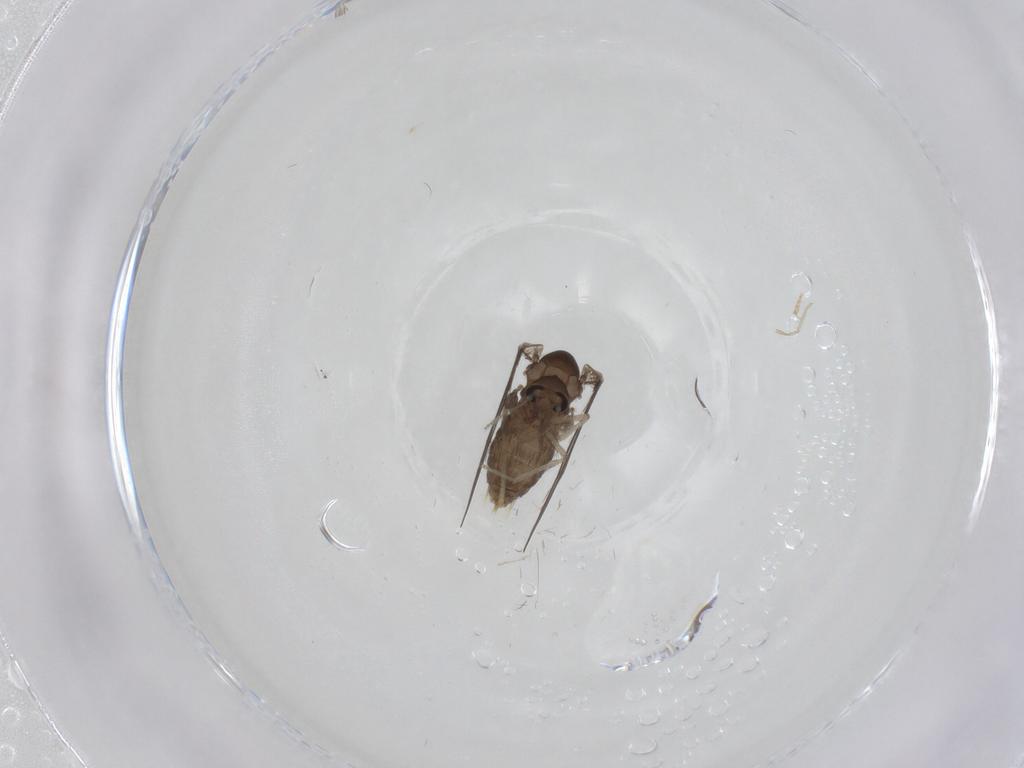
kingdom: Animalia
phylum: Arthropoda
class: Insecta
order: Diptera
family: Psychodidae
